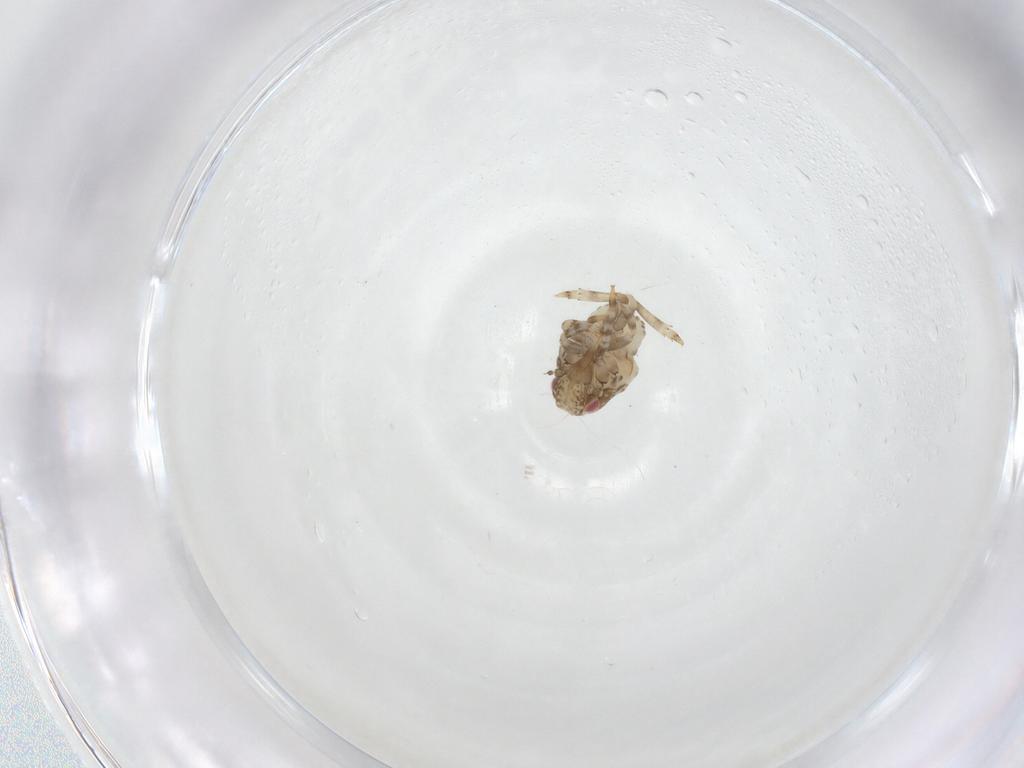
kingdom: Animalia
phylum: Arthropoda
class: Insecta
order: Hemiptera
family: Acanaloniidae
